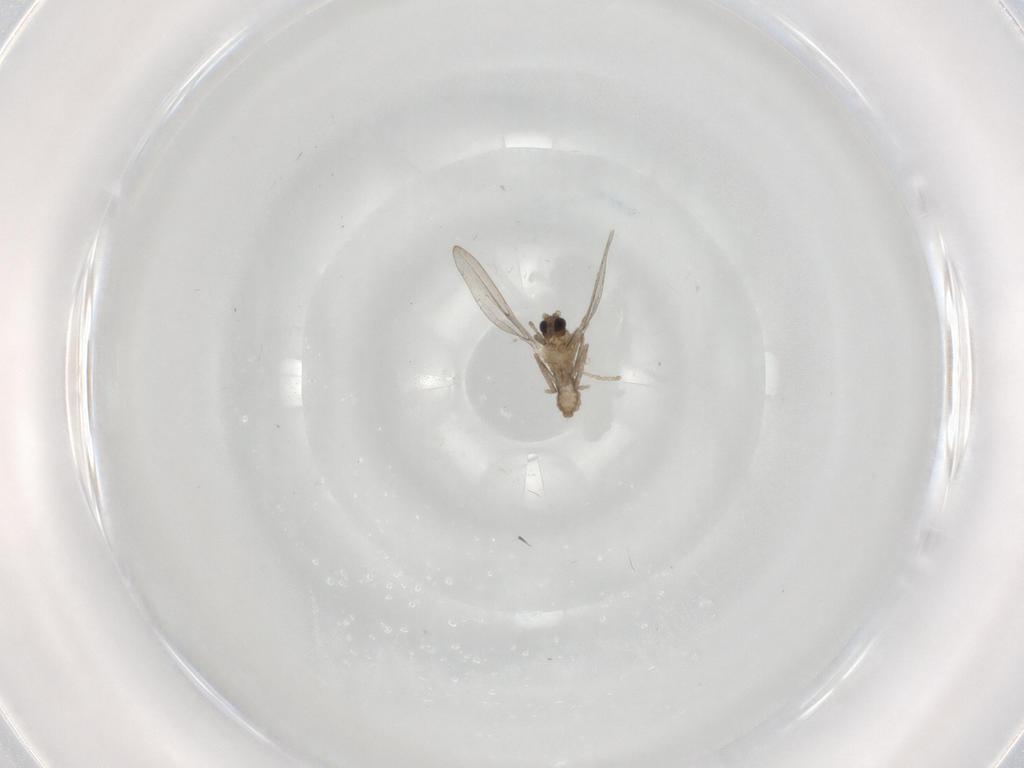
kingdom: Animalia
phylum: Arthropoda
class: Insecta
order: Diptera
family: Cecidomyiidae
